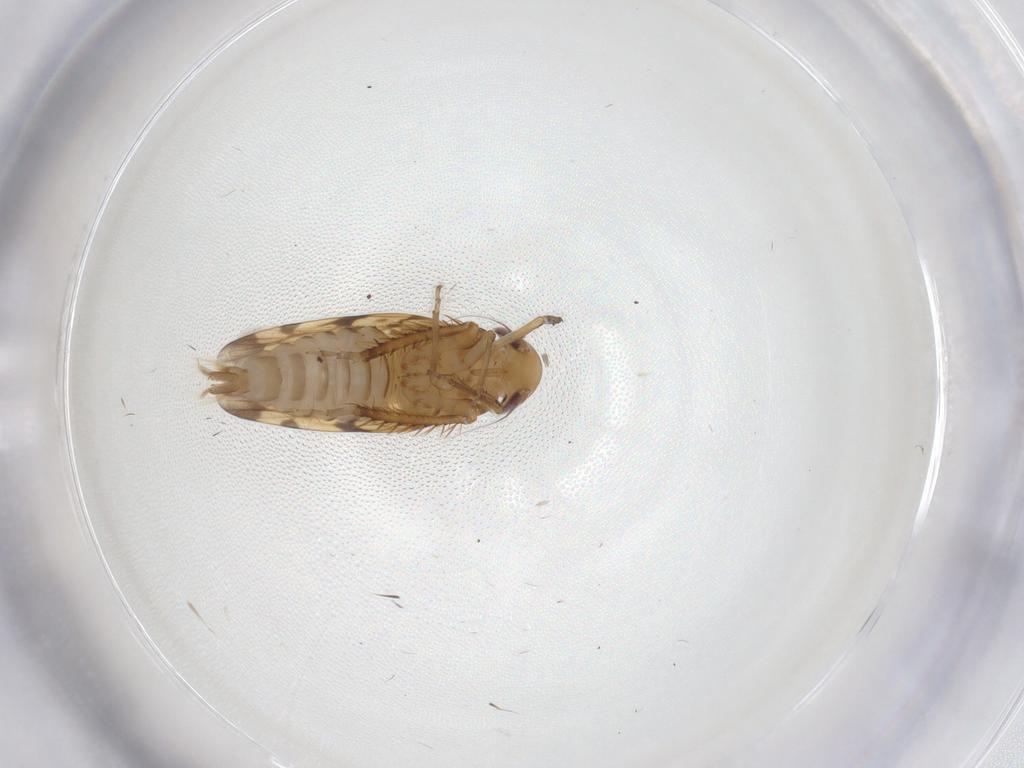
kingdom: Animalia
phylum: Arthropoda
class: Insecta
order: Hemiptera
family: Cicadellidae
